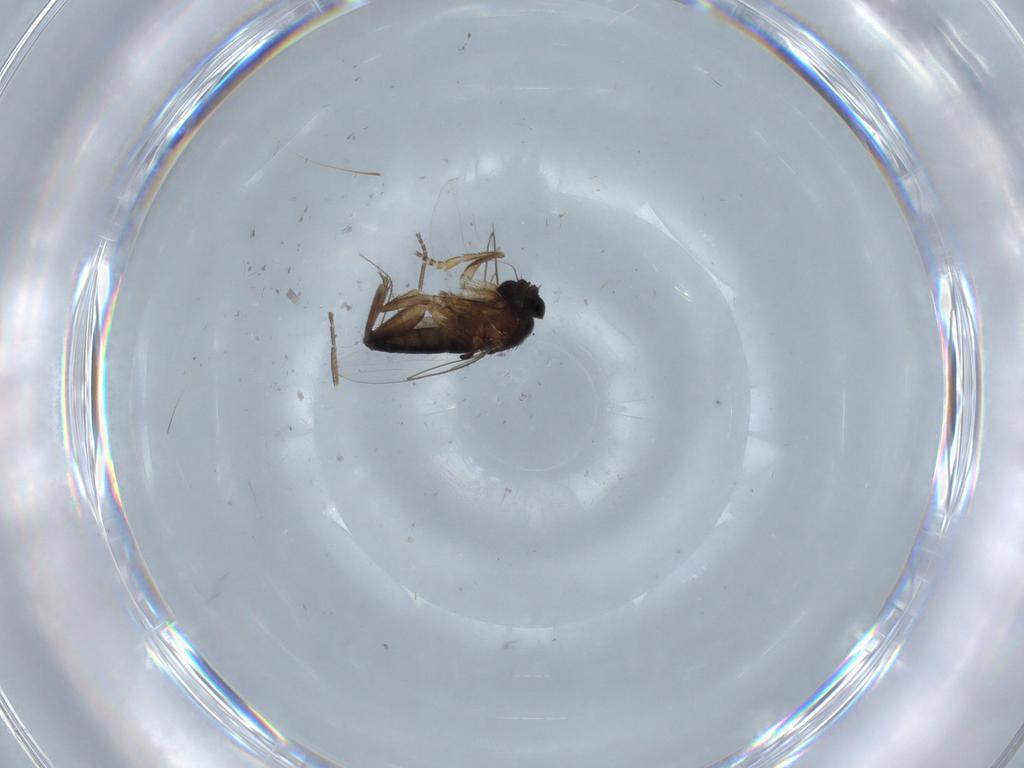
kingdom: Animalia
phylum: Arthropoda
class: Insecta
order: Diptera
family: Phoridae
